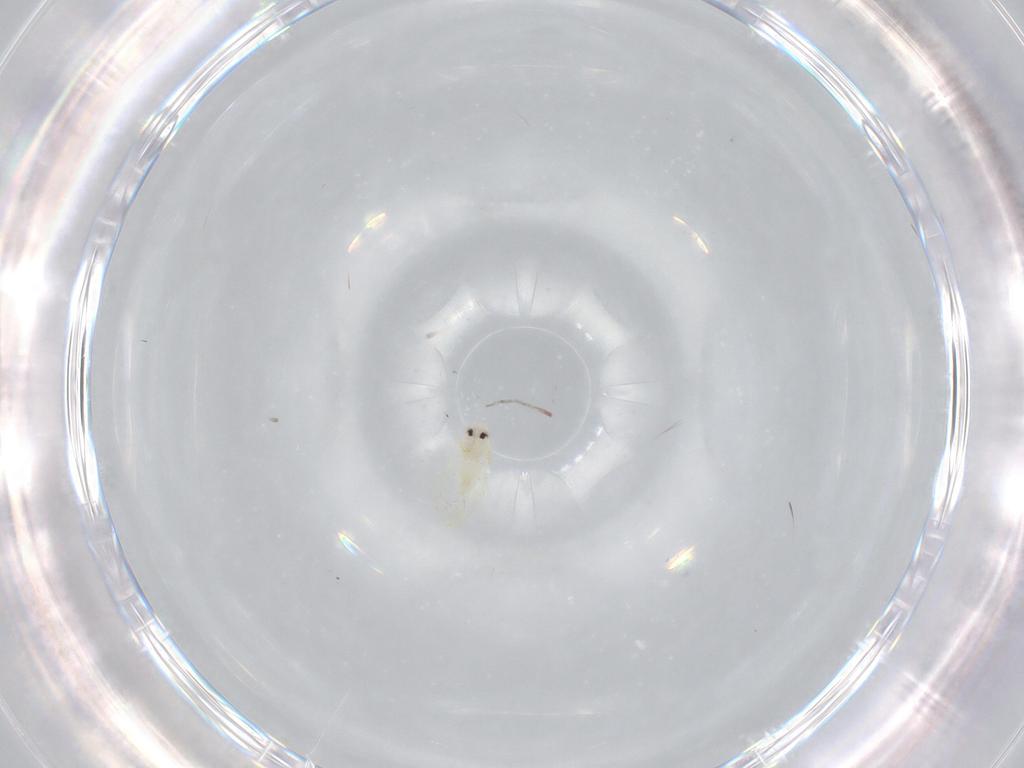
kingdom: Animalia
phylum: Arthropoda
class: Insecta
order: Hemiptera
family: Aleyrodidae
